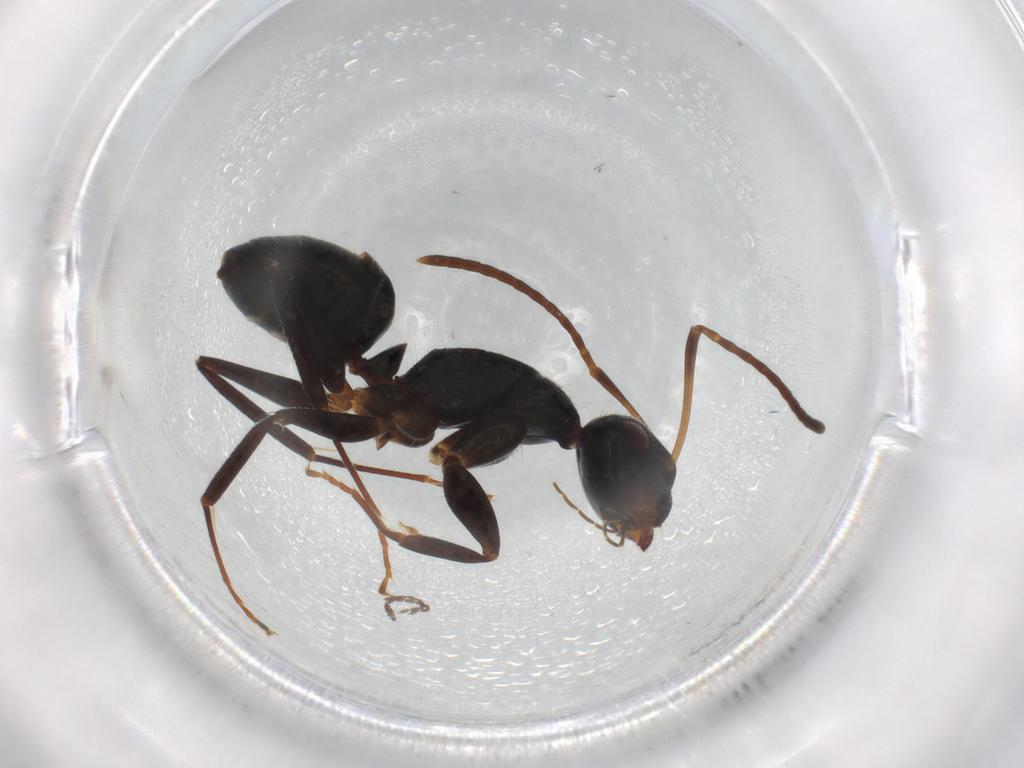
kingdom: Animalia
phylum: Arthropoda
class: Insecta
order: Hymenoptera
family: Formicidae
